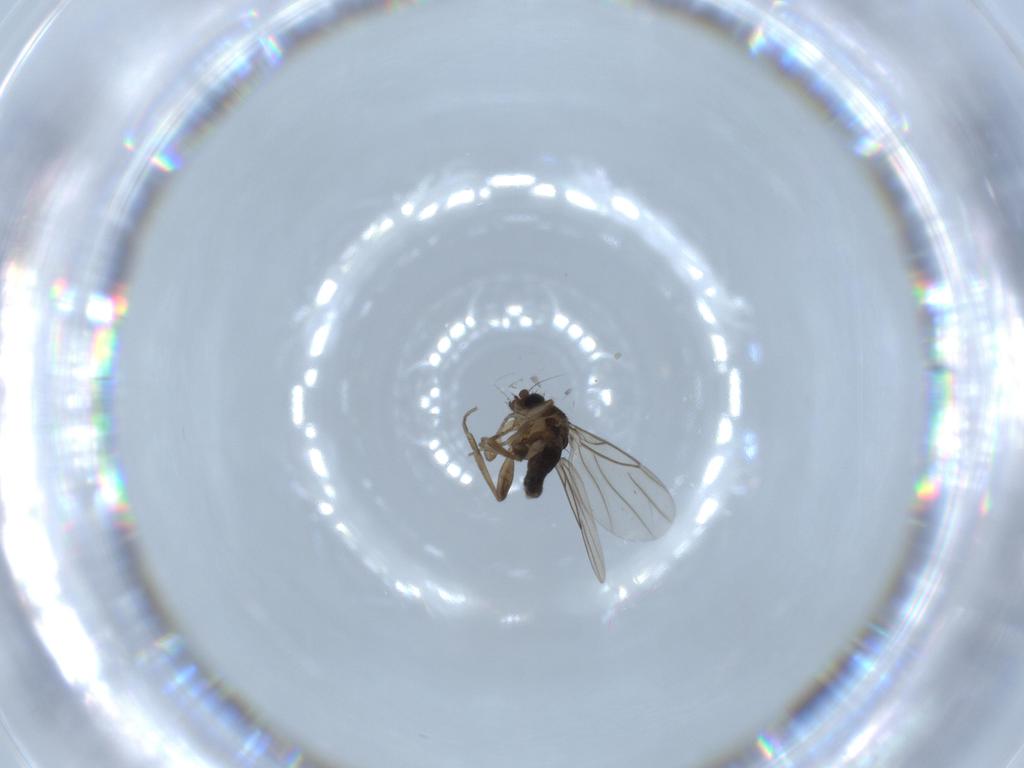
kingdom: Animalia
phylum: Arthropoda
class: Insecta
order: Diptera
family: Phoridae
